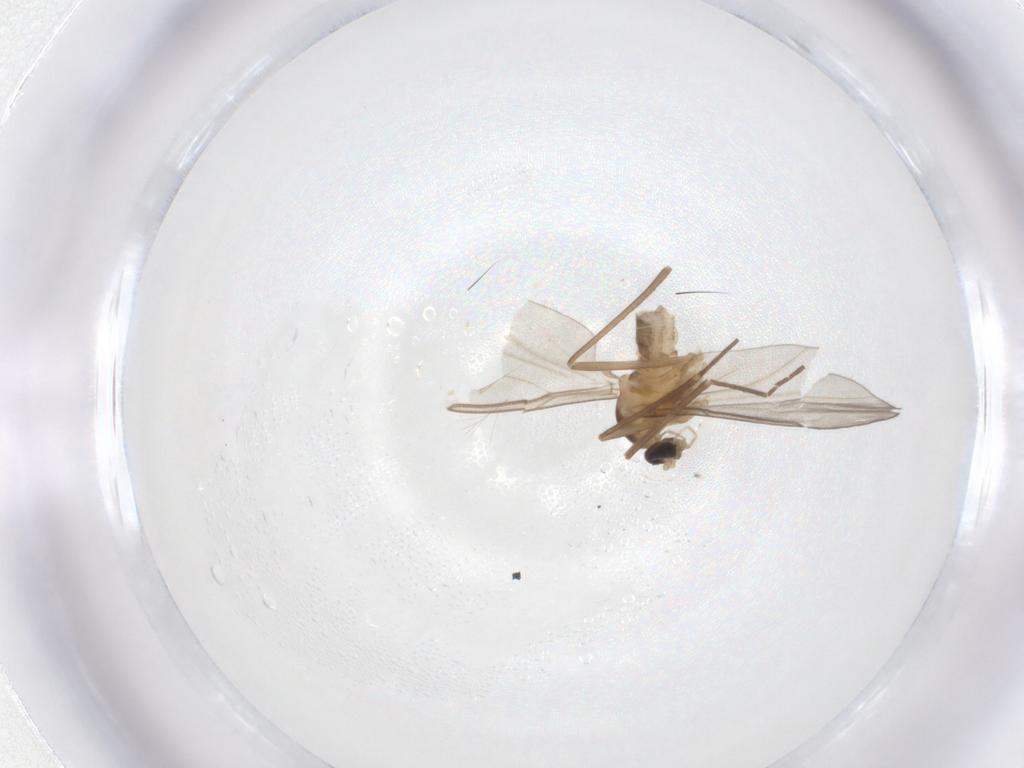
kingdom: Animalia
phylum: Arthropoda
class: Insecta
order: Diptera
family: Cecidomyiidae
